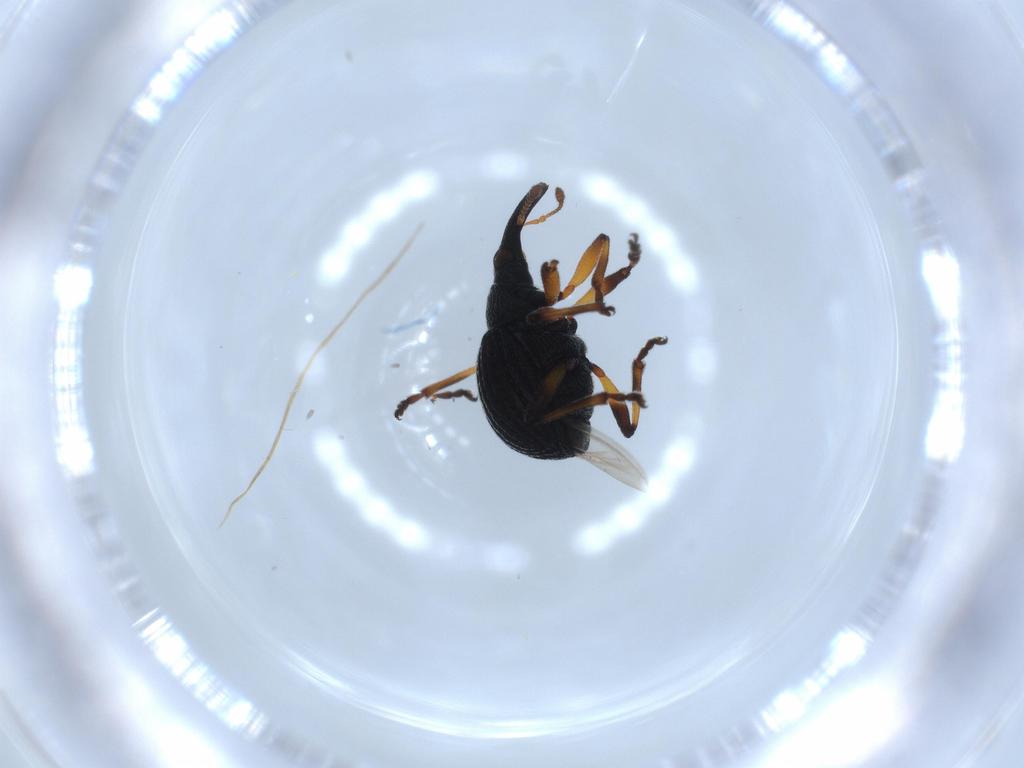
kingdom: Animalia
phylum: Arthropoda
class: Insecta
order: Coleoptera
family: Brentidae
